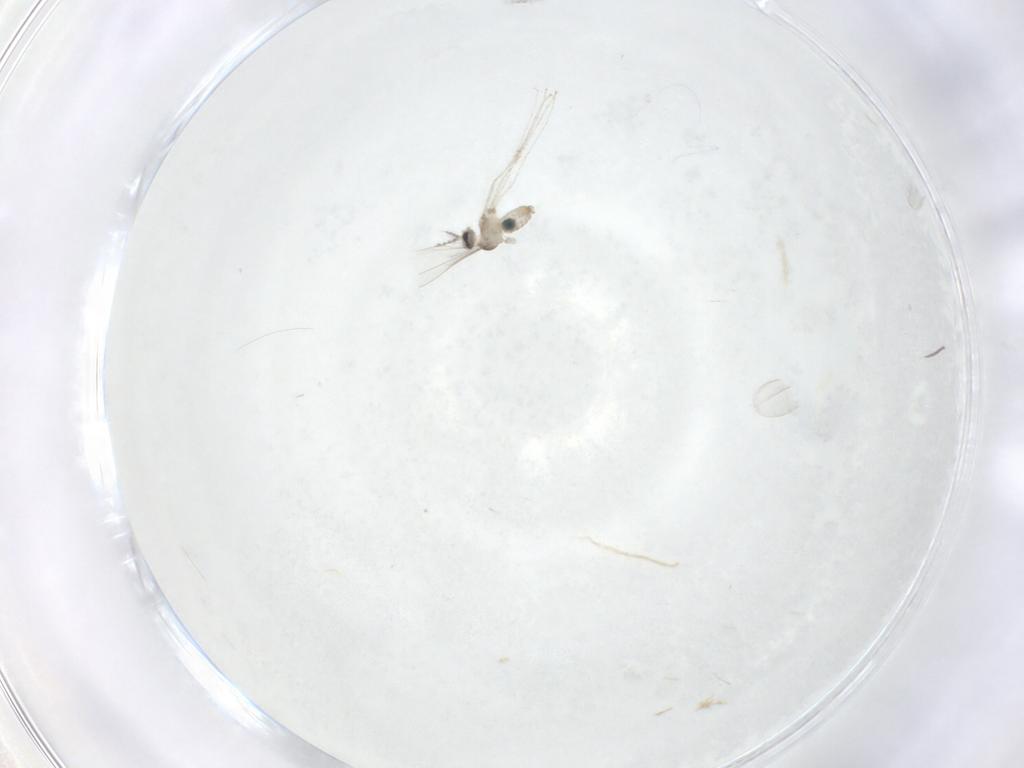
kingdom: Animalia
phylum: Arthropoda
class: Insecta
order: Diptera
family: Cecidomyiidae
